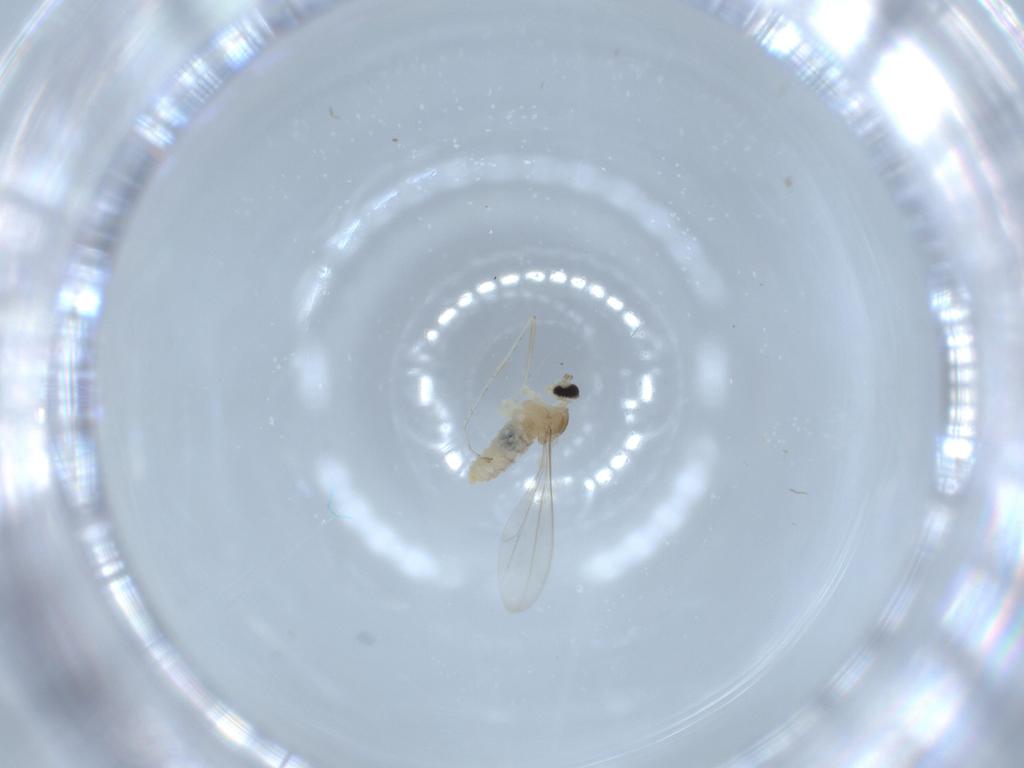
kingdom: Animalia
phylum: Arthropoda
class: Insecta
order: Diptera
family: Cecidomyiidae
